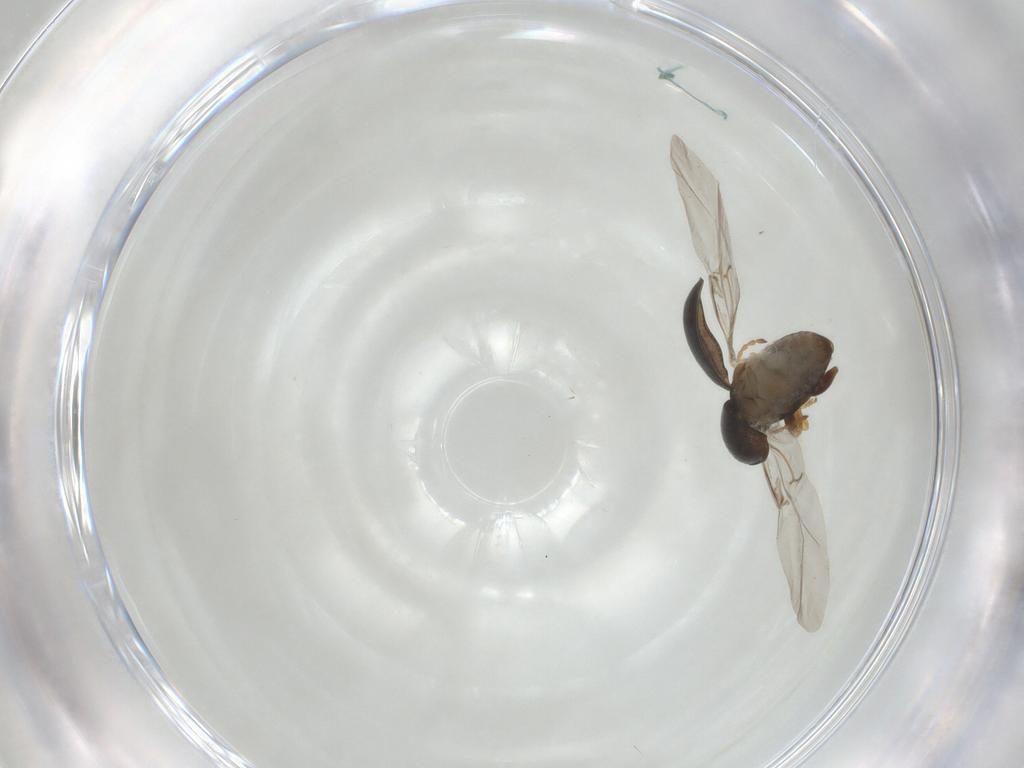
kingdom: Animalia
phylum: Arthropoda
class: Insecta
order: Coleoptera
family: Chrysomelidae
